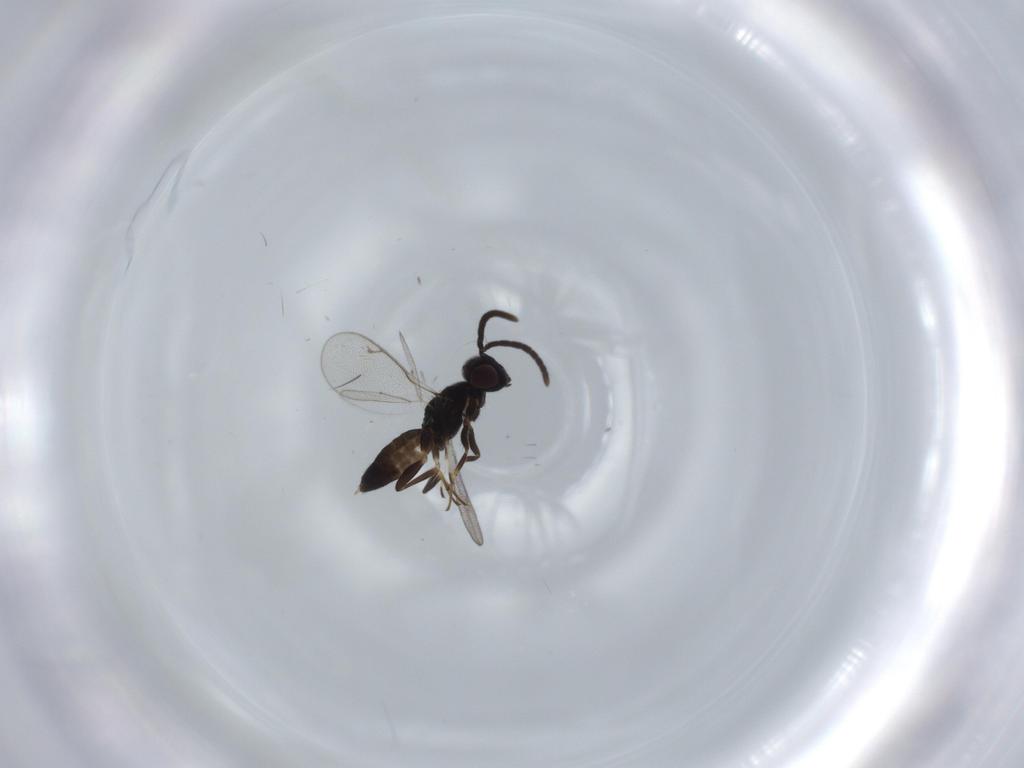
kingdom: Animalia
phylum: Arthropoda
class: Insecta
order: Hymenoptera
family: Eupelmidae
